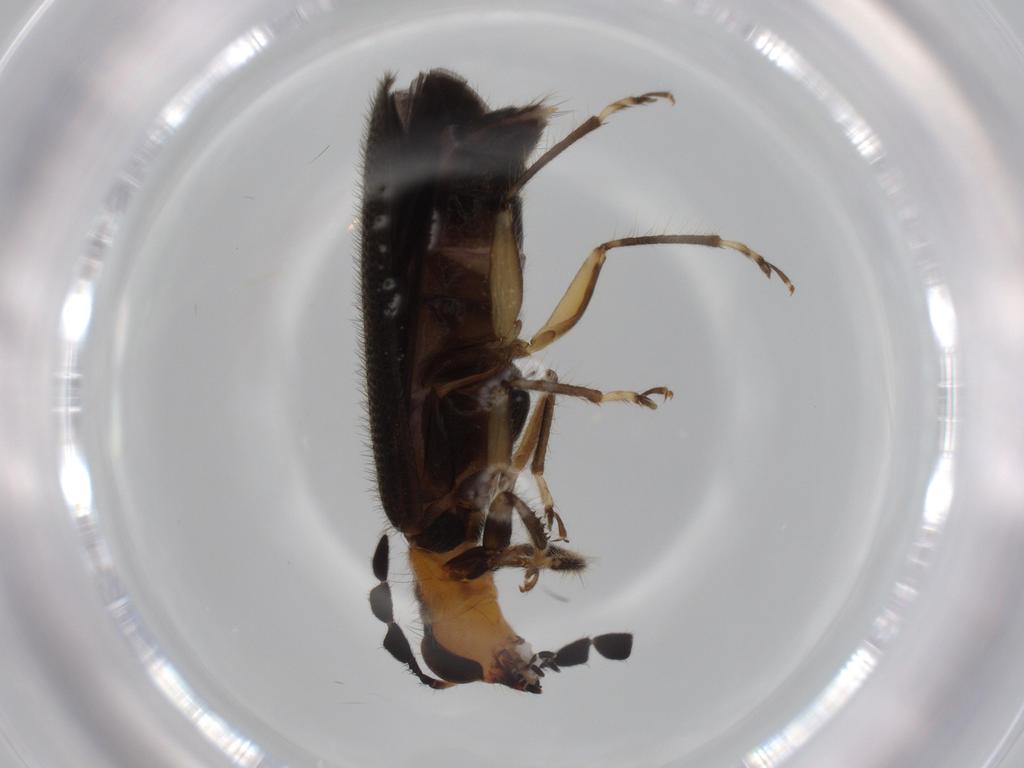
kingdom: Animalia
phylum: Arthropoda
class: Insecta
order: Coleoptera
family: Cleridae
